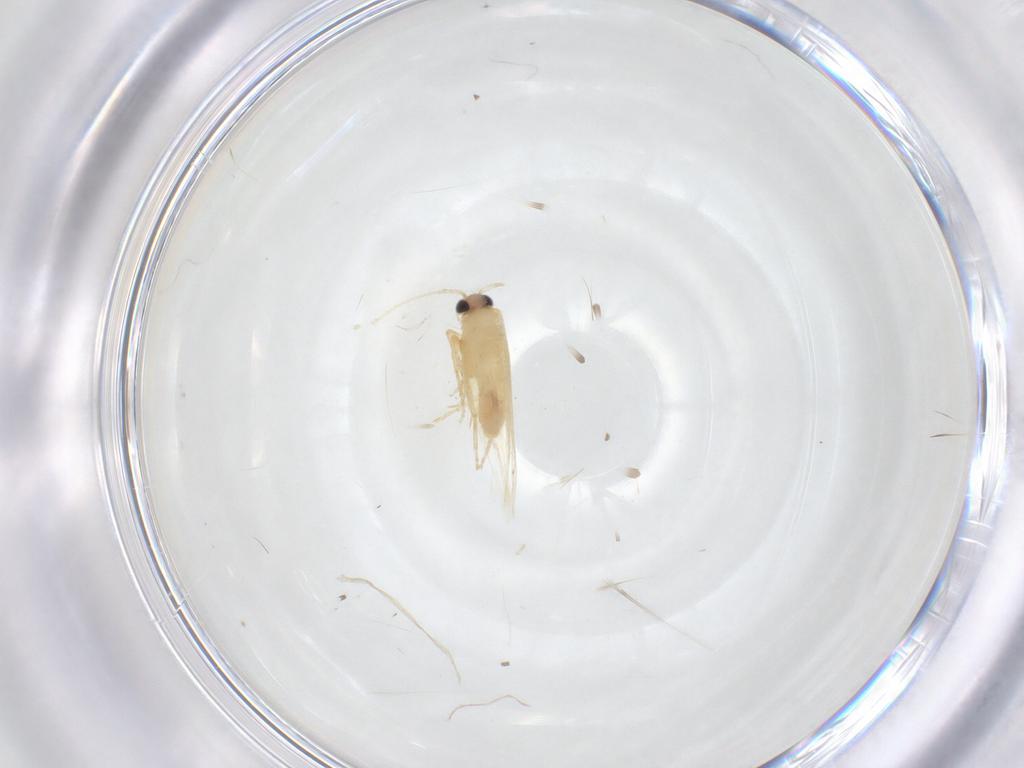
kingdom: Animalia
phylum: Arthropoda
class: Insecta
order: Lepidoptera
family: Nepticulidae
